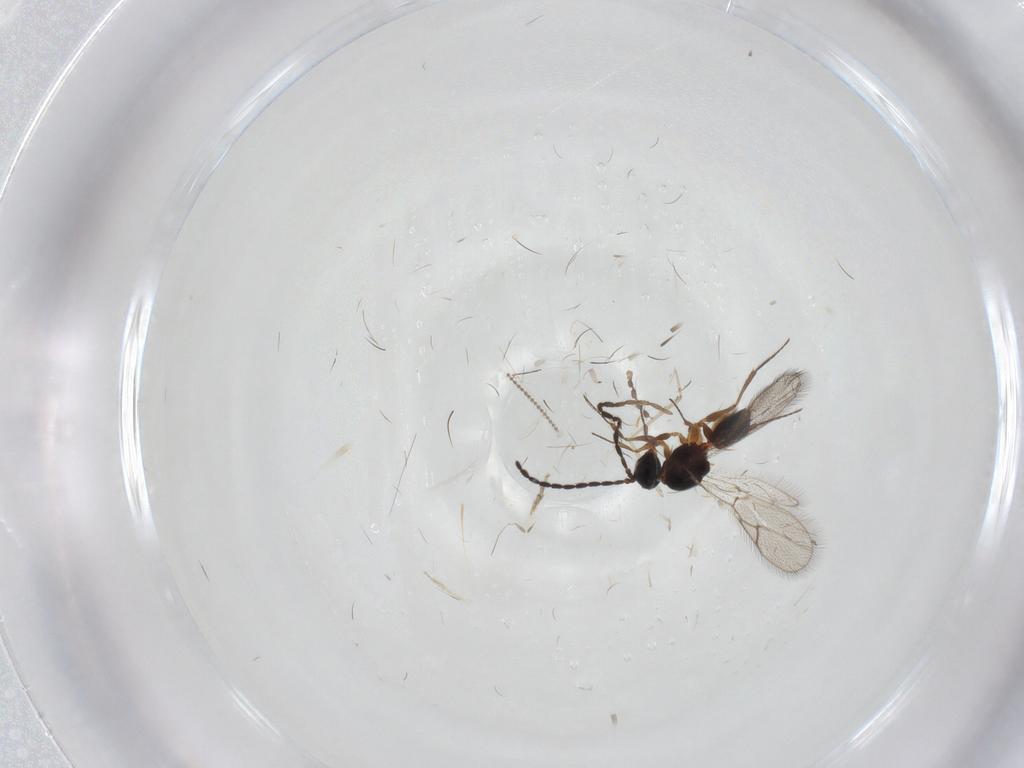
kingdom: Animalia
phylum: Arthropoda
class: Insecta
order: Hymenoptera
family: Figitidae
